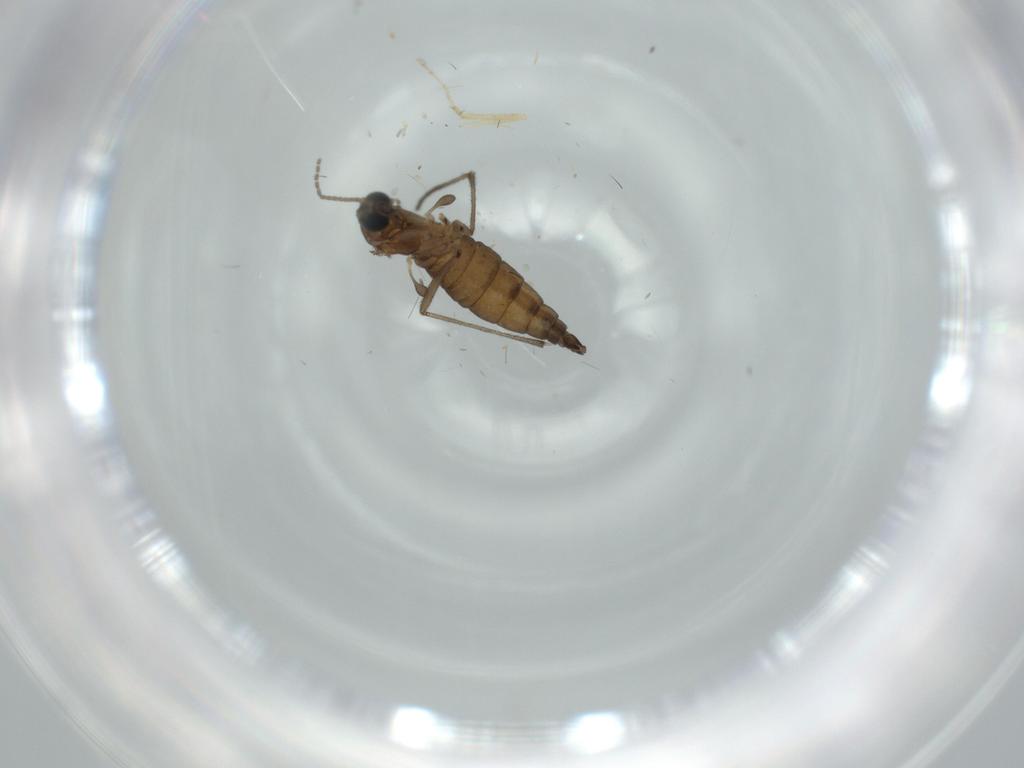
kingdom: Animalia
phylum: Arthropoda
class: Insecta
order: Diptera
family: Sciaridae
